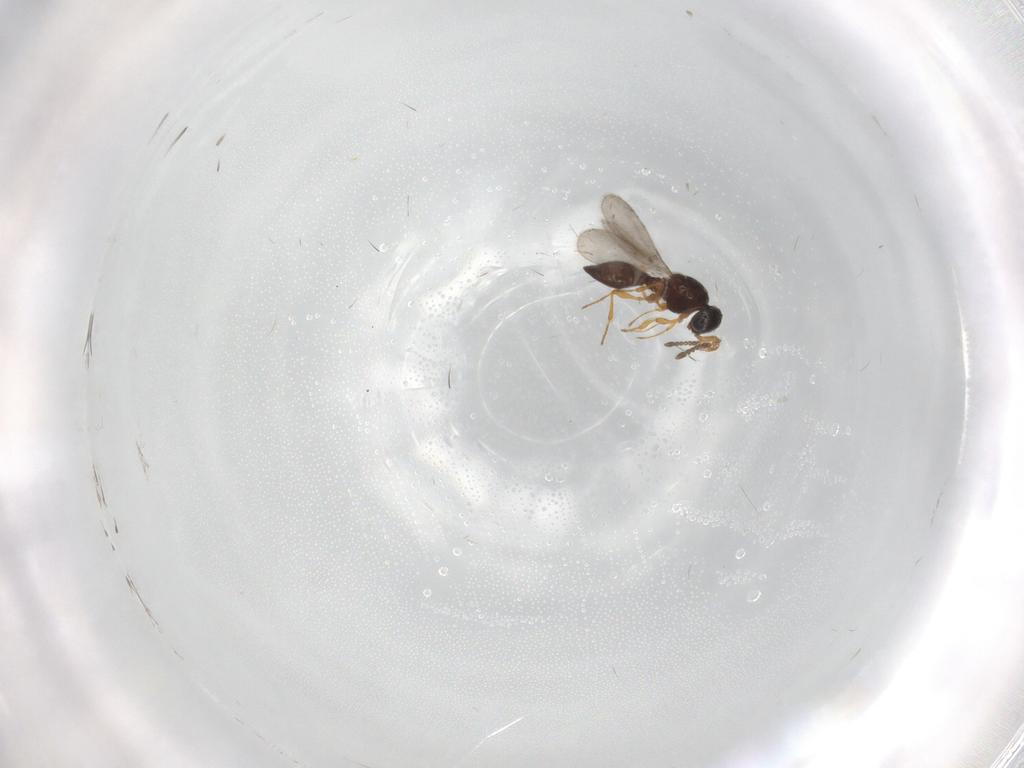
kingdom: Animalia
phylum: Arthropoda
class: Insecta
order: Hymenoptera
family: Platygastridae
